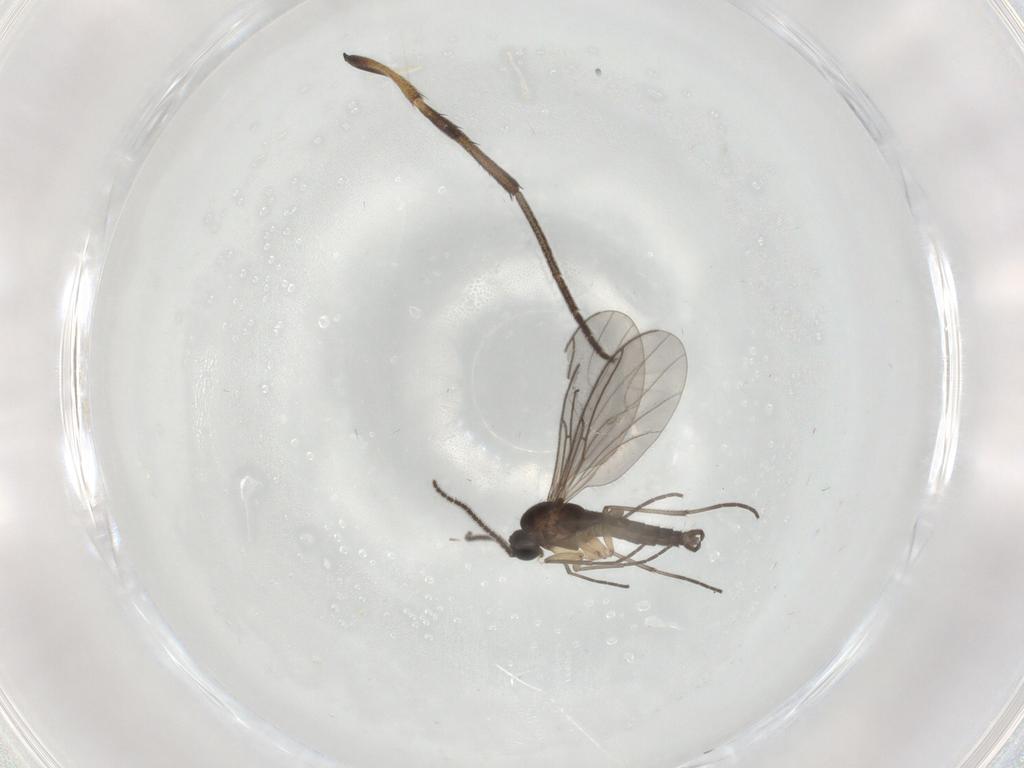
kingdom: Animalia
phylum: Arthropoda
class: Insecta
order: Diptera
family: Sciaridae
